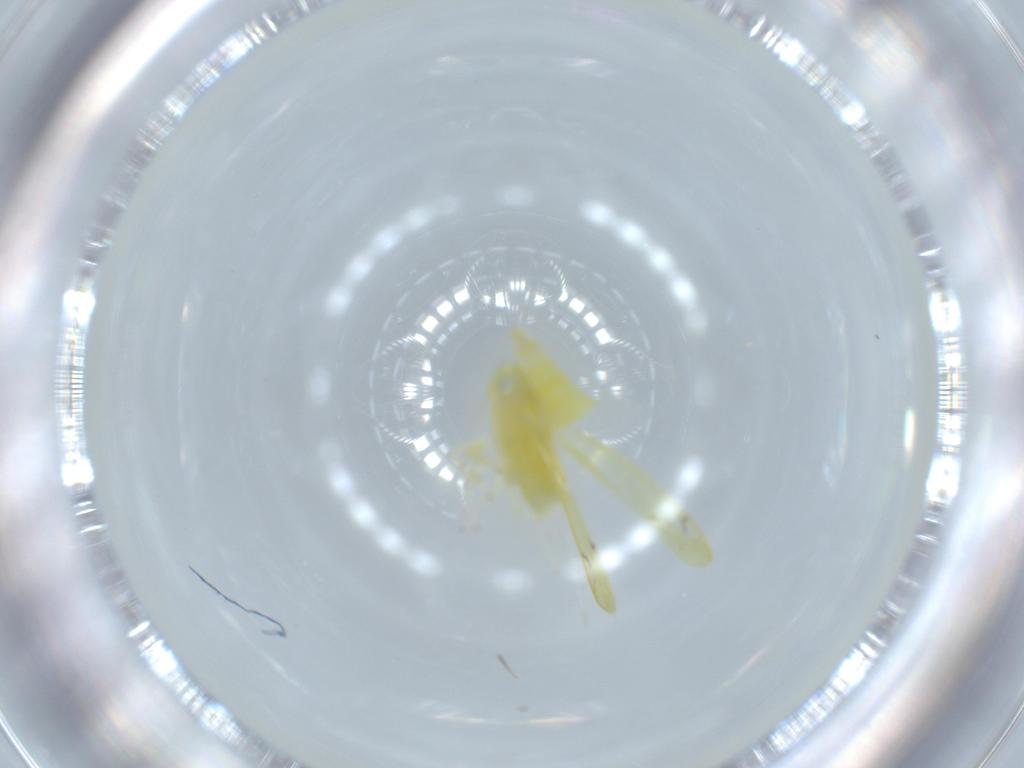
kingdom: Animalia
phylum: Arthropoda
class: Insecta
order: Hemiptera
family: Cicadellidae
